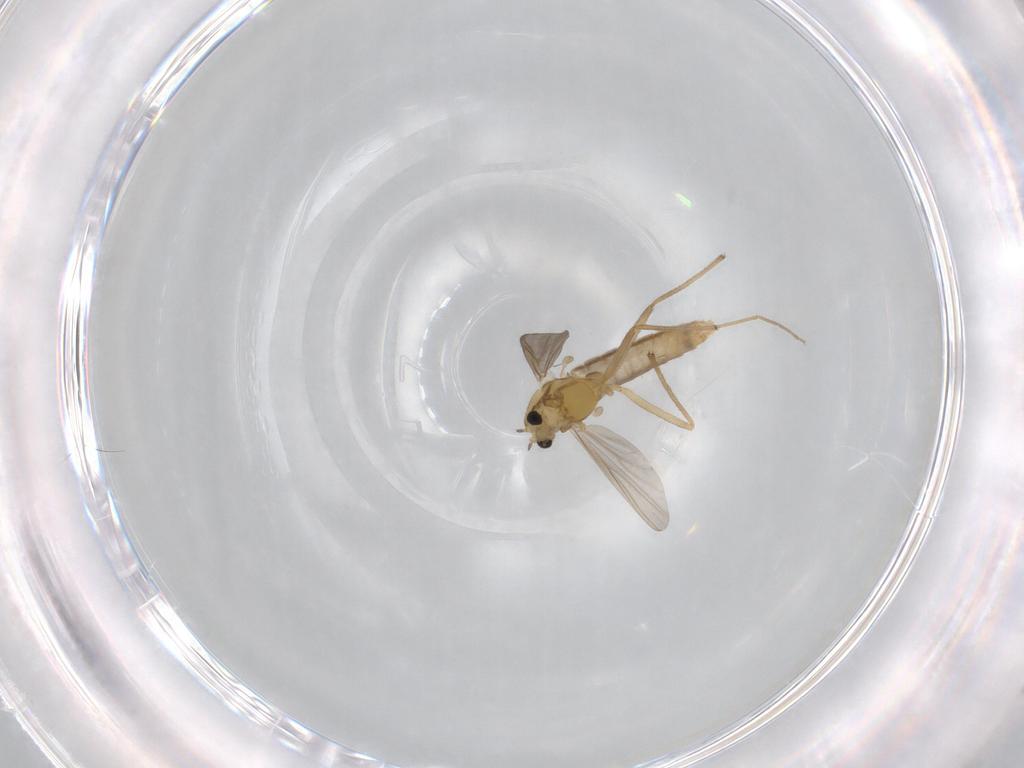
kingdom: Animalia
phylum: Arthropoda
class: Insecta
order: Diptera
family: Chironomidae
